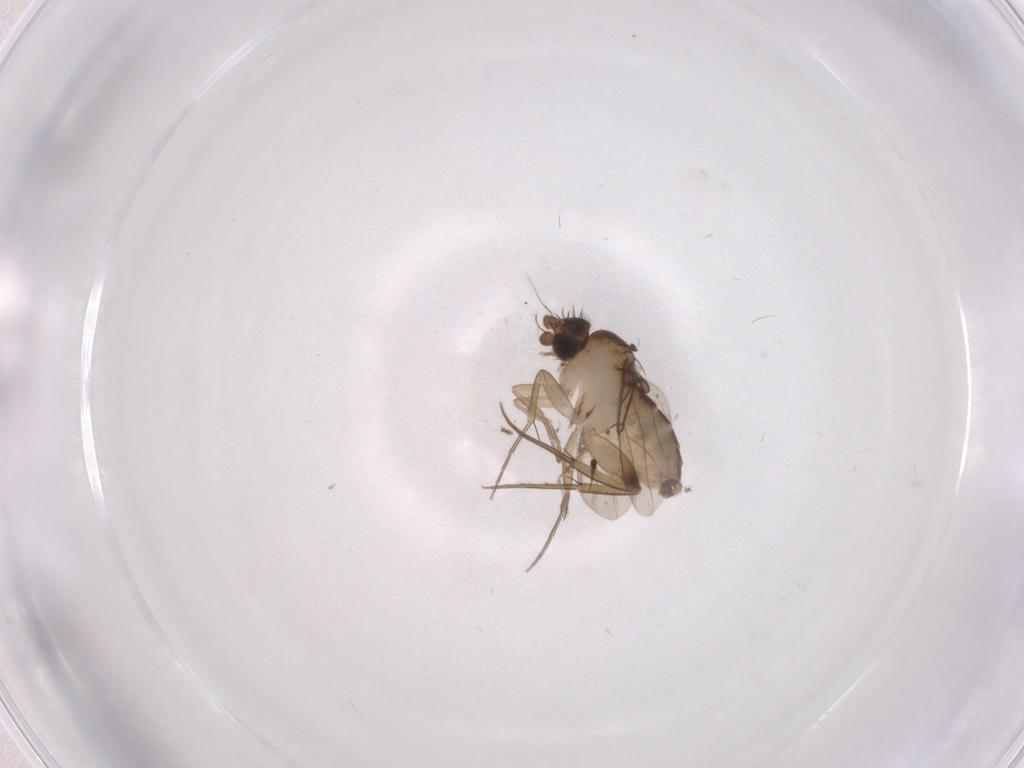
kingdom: Animalia
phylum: Arthropoda
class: Insecta
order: Diptera
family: Phoridae
